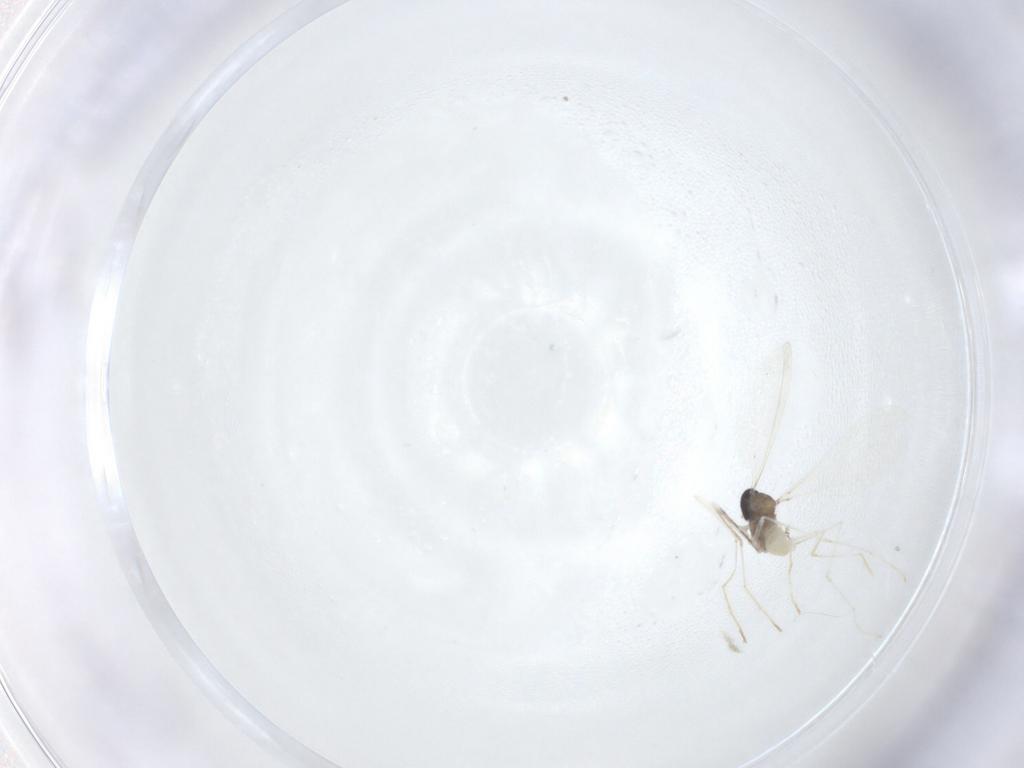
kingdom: Animalia
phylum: Arthropoda
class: Insecta
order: Diptera
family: Cecidomyiidae
